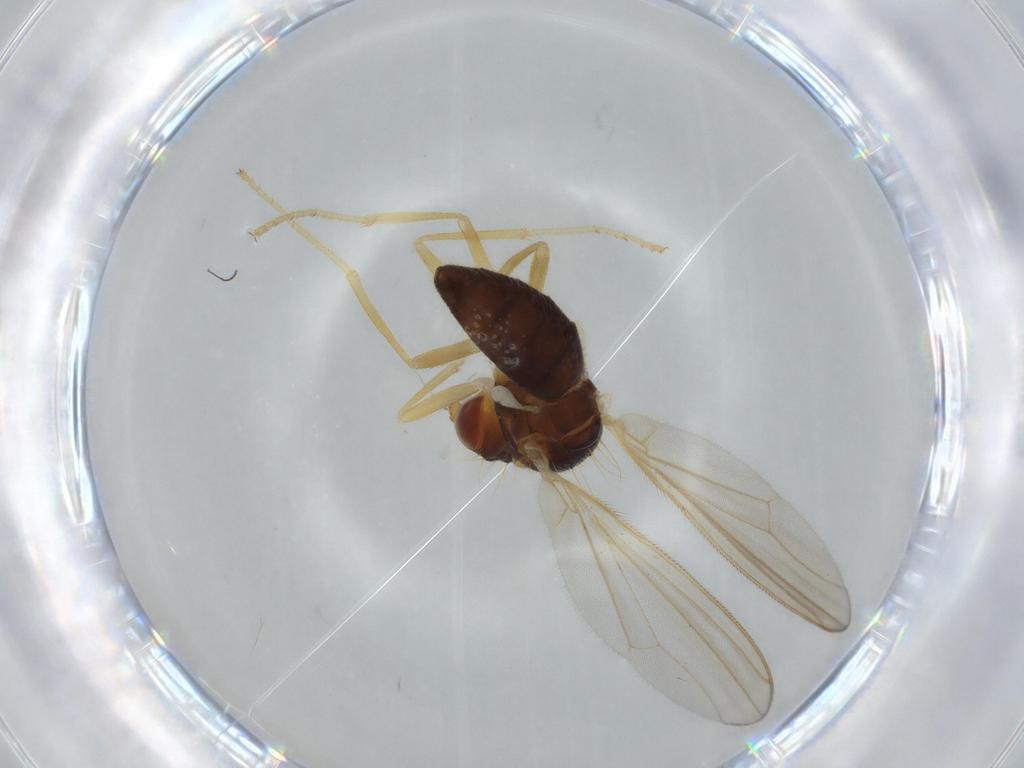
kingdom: Animalia
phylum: Arthropoda
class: Insecta
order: Diptera
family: Psilidae
